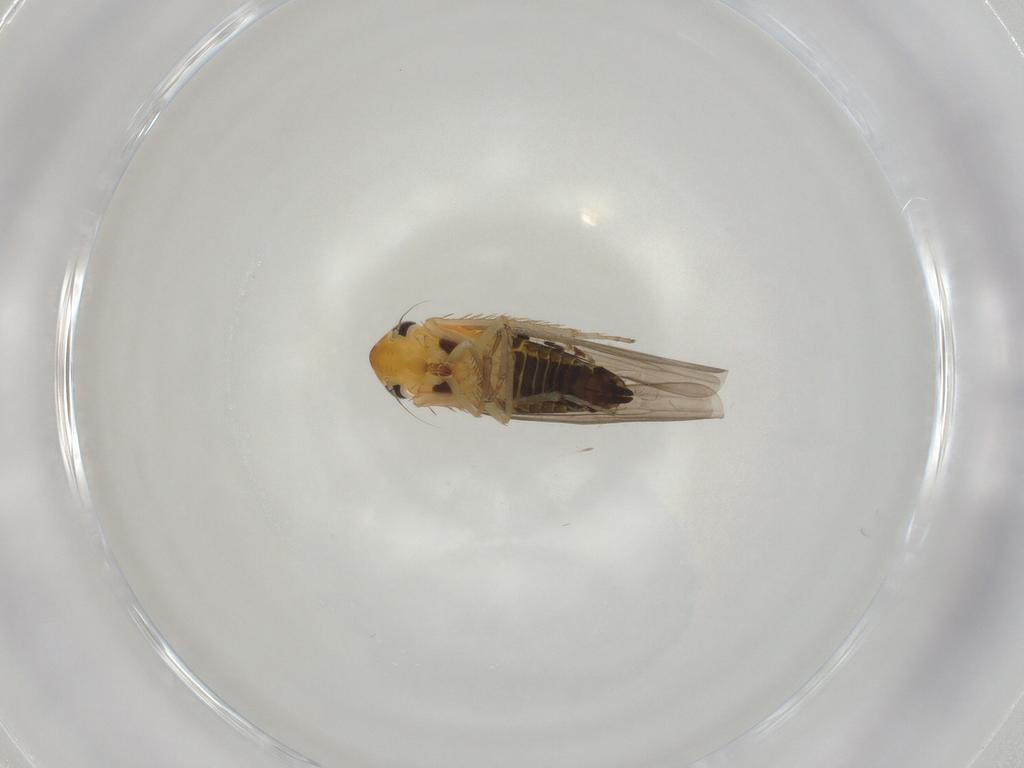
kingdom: Animalia
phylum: Arthropoda
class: Insecta
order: Hemiptera
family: Cicadellidae
